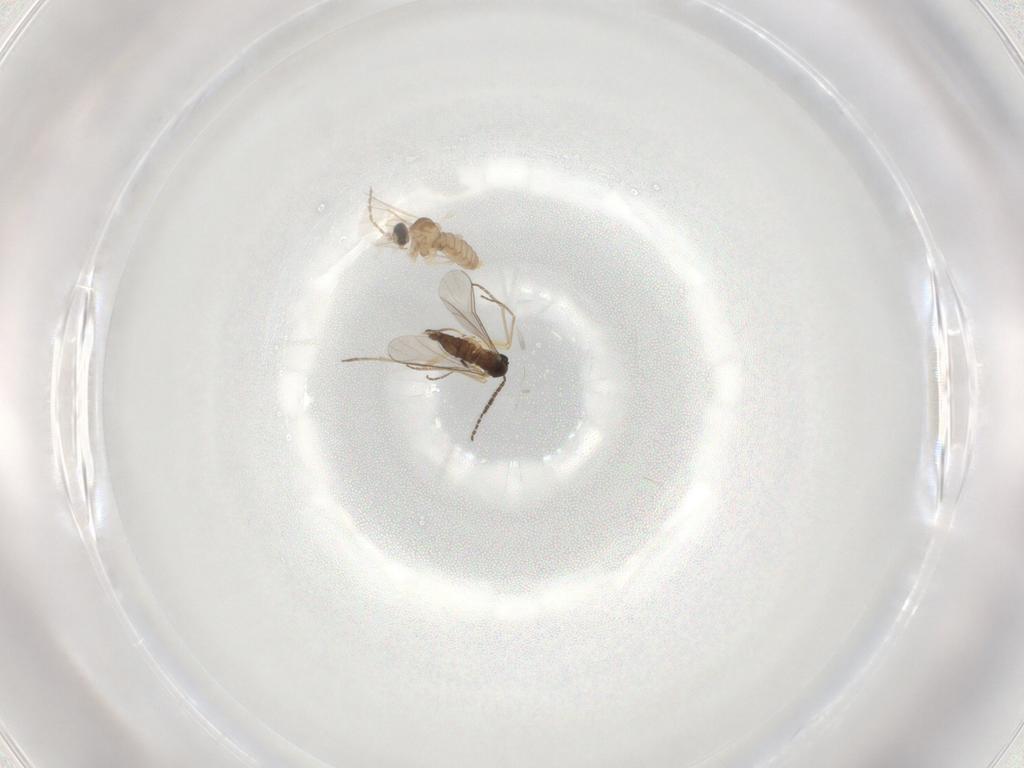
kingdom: Animalia
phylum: Arthropoda
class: Insecta
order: Diptera
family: Cecidomyiidae
